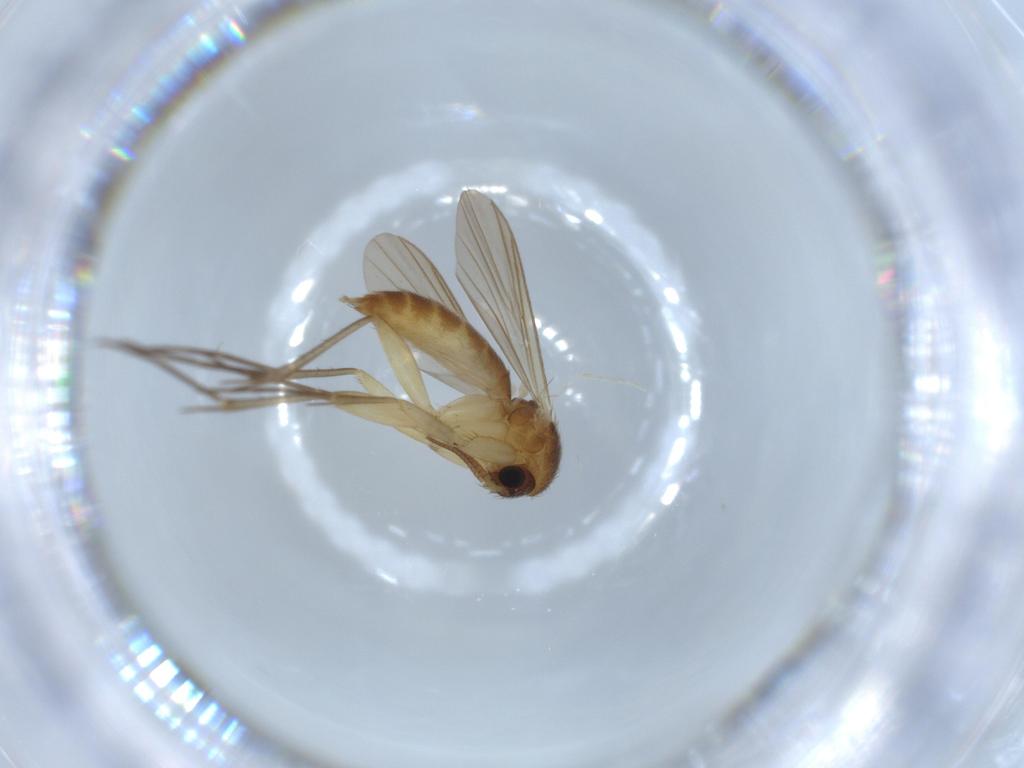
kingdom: Animalia
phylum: Arthropoda
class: Insecta
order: Diptera
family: Mycetophilidae
